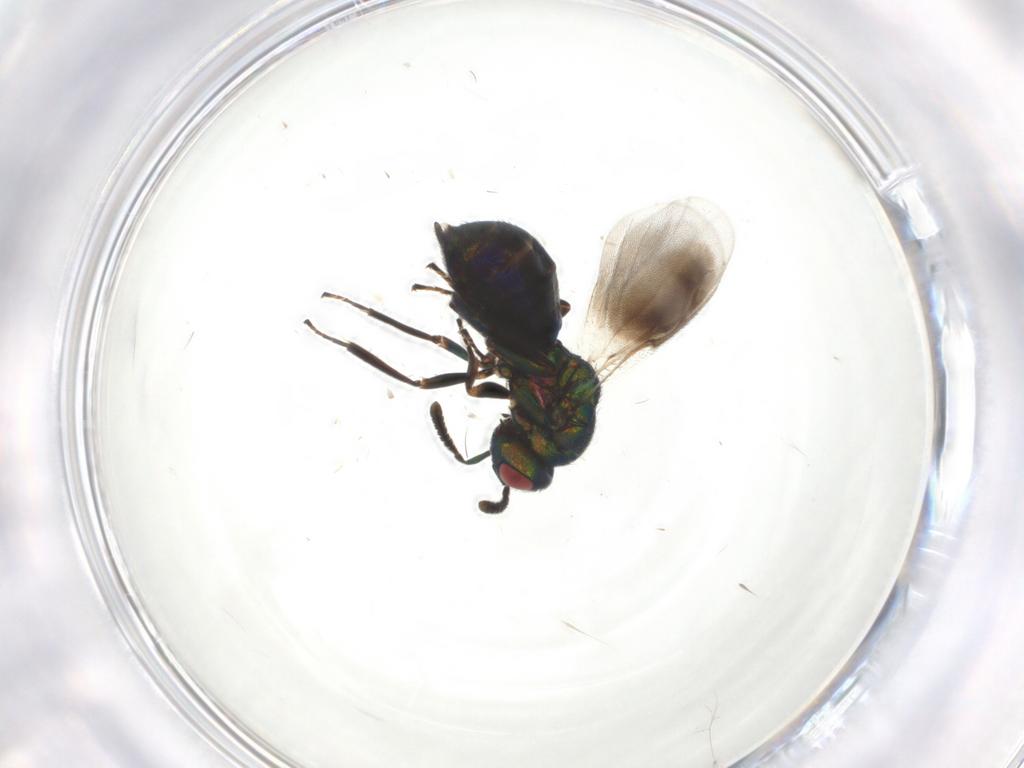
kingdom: Animalia
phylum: Arthropoda
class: Insecta
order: Hymenoptera
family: Pteromalidae
